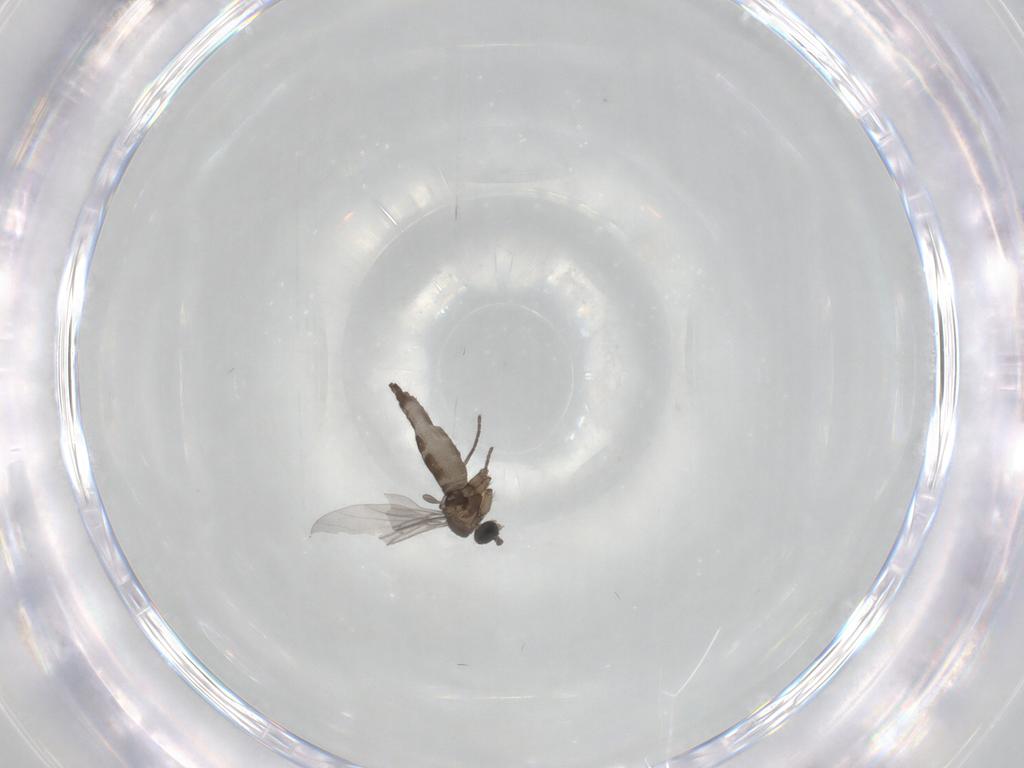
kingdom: Animalia
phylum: Arthropoda
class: Insecta
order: Diptera
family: Sciaridae
